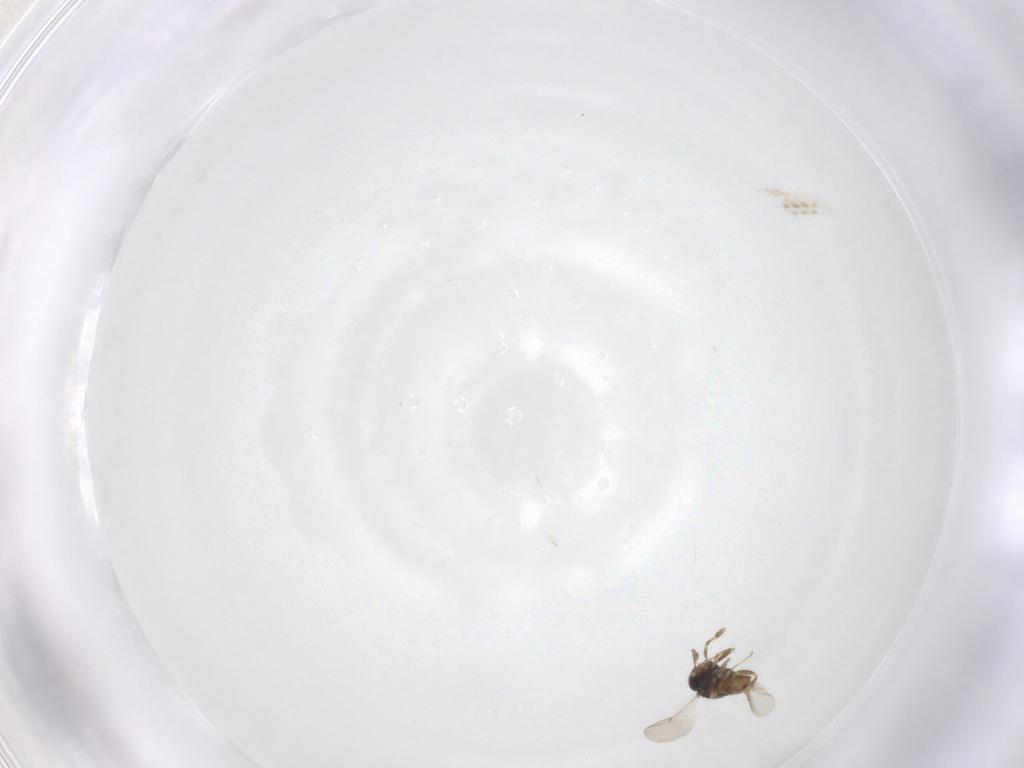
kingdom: Animalia
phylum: Arthropoda
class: Insecta
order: Hymenoptera
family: Encyrtidae
